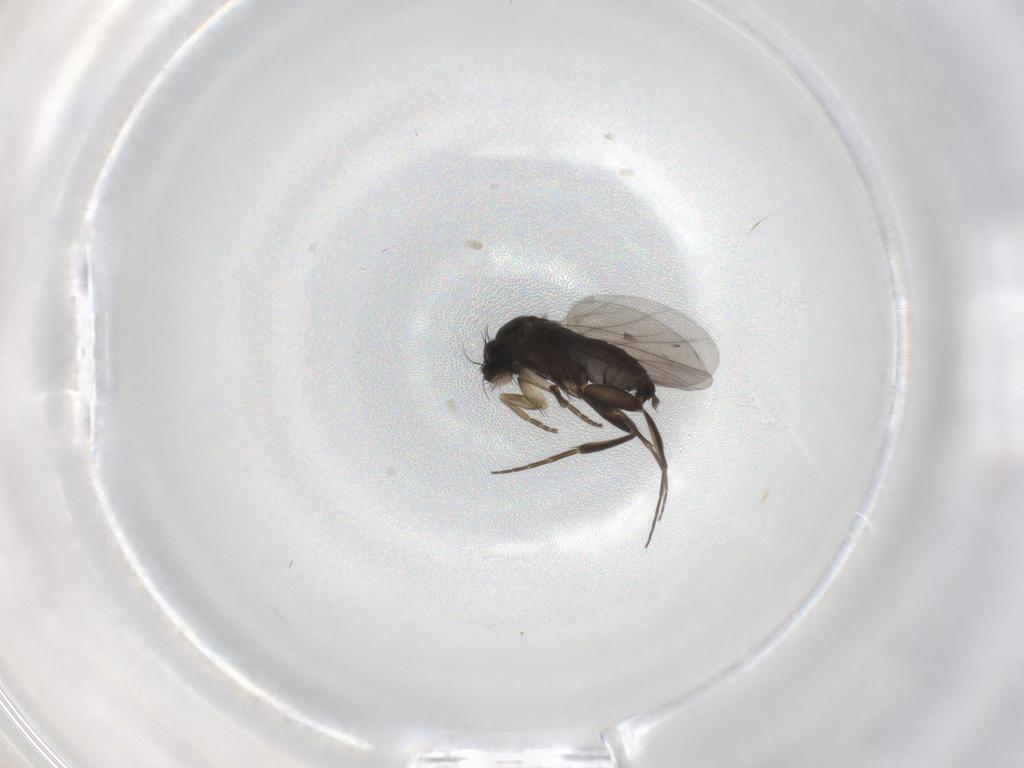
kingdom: Animalia
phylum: Arthropoda
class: Insecta
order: Diptera
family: Phoridae
